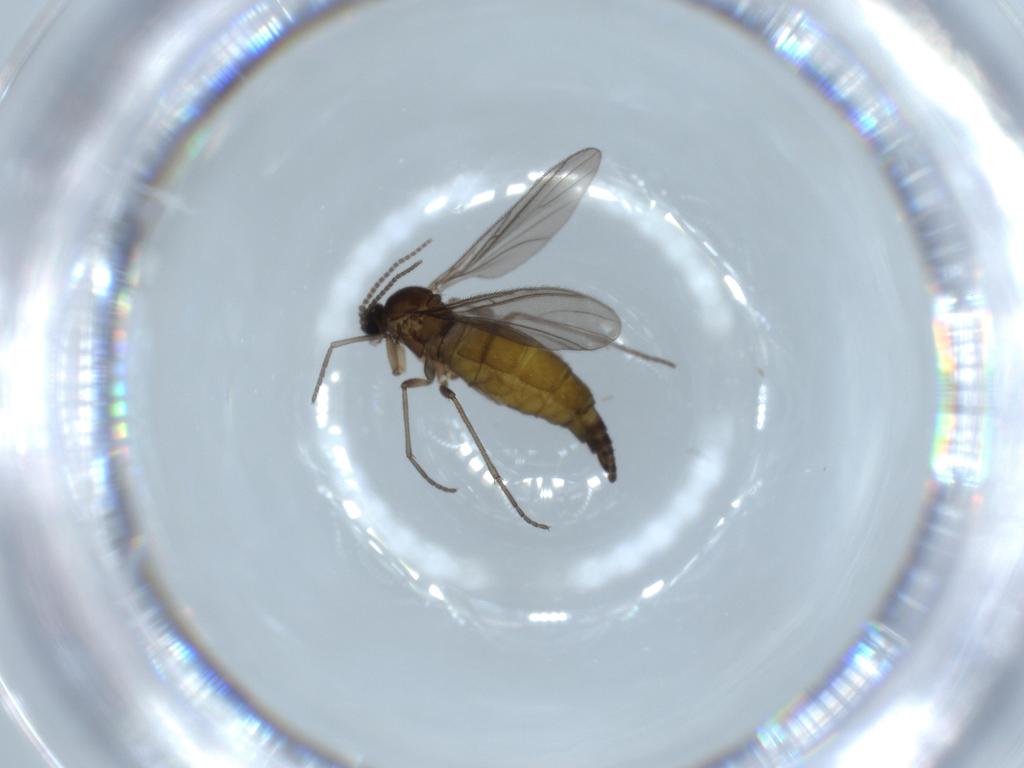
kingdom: Animalia
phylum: Arthropoda
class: Insecta
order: Diptera
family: Sciaridae
